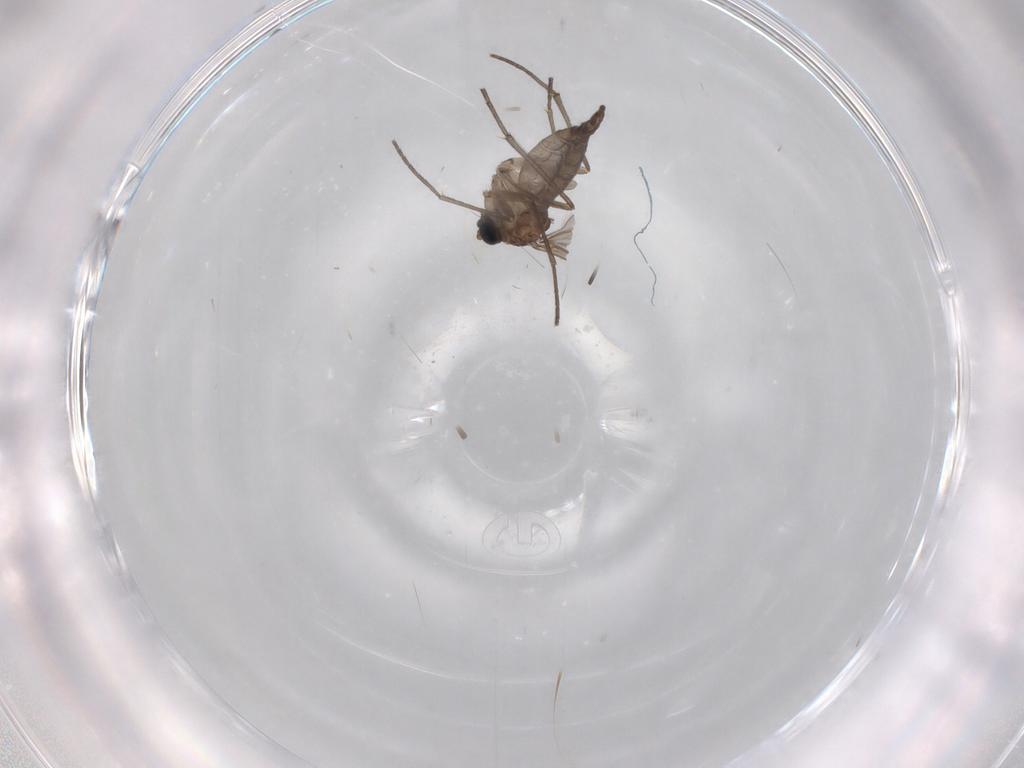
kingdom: Animalia
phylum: Arthropoda
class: Insecta
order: Diptera
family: Sciaridae
